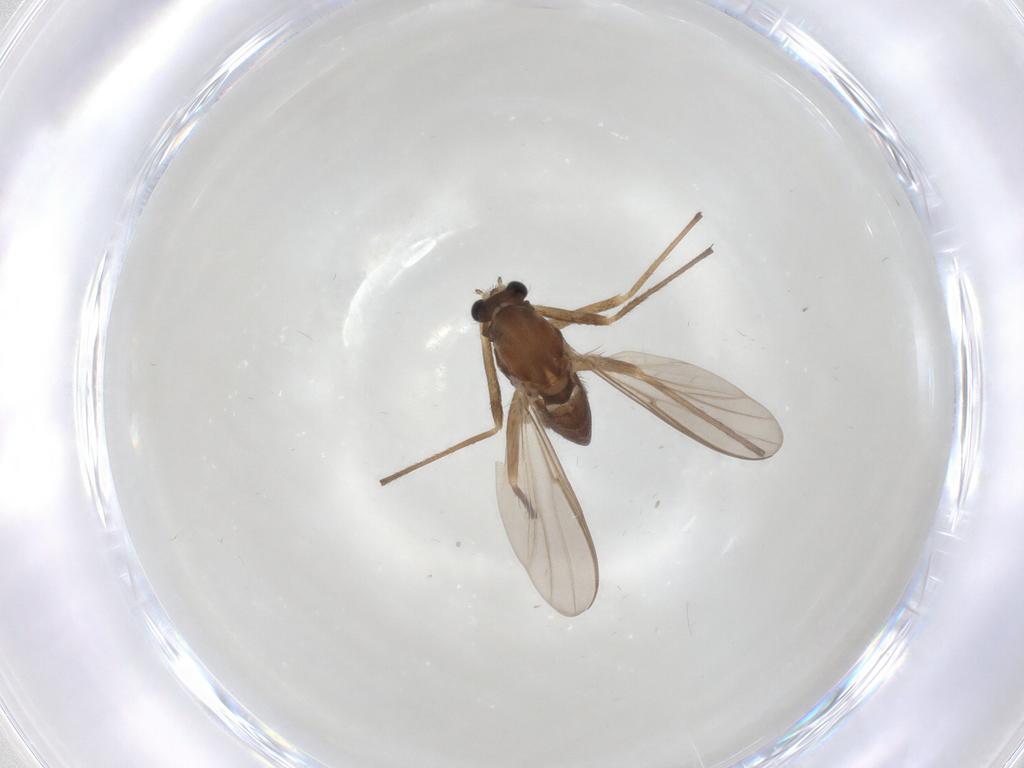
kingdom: Animalia
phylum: Arthropoda
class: Insecta
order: Diptera
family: Chironomidae
